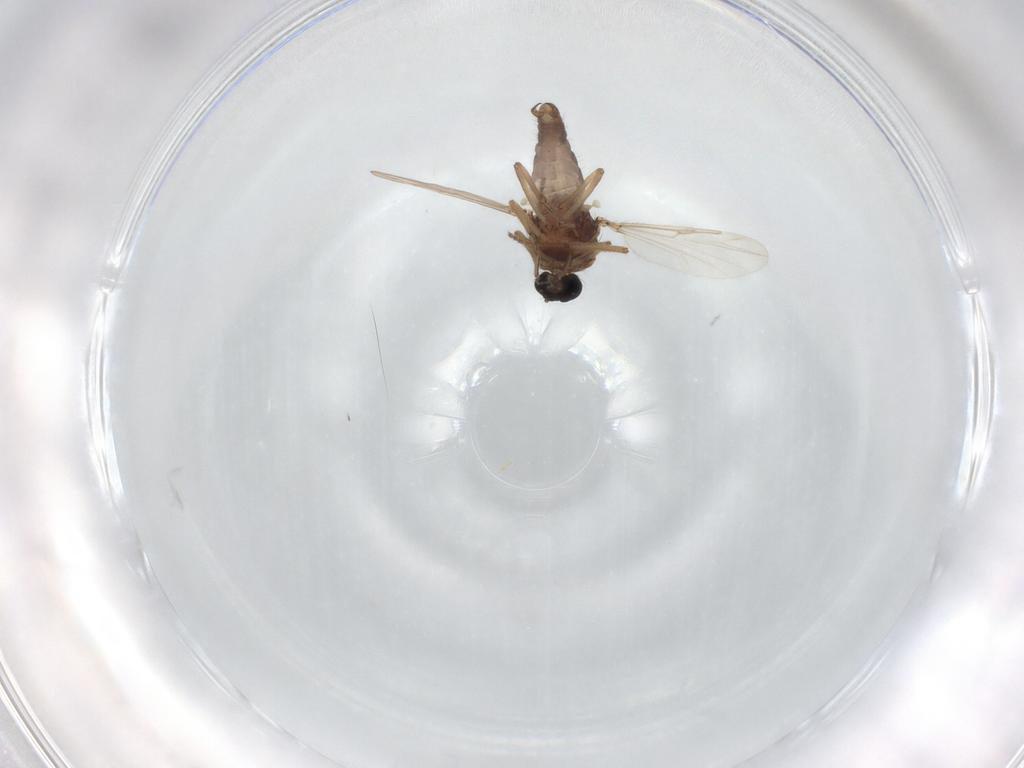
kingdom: Animalia
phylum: Arthropoda
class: Insecta
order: Diptera
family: Ceratopogonidae
